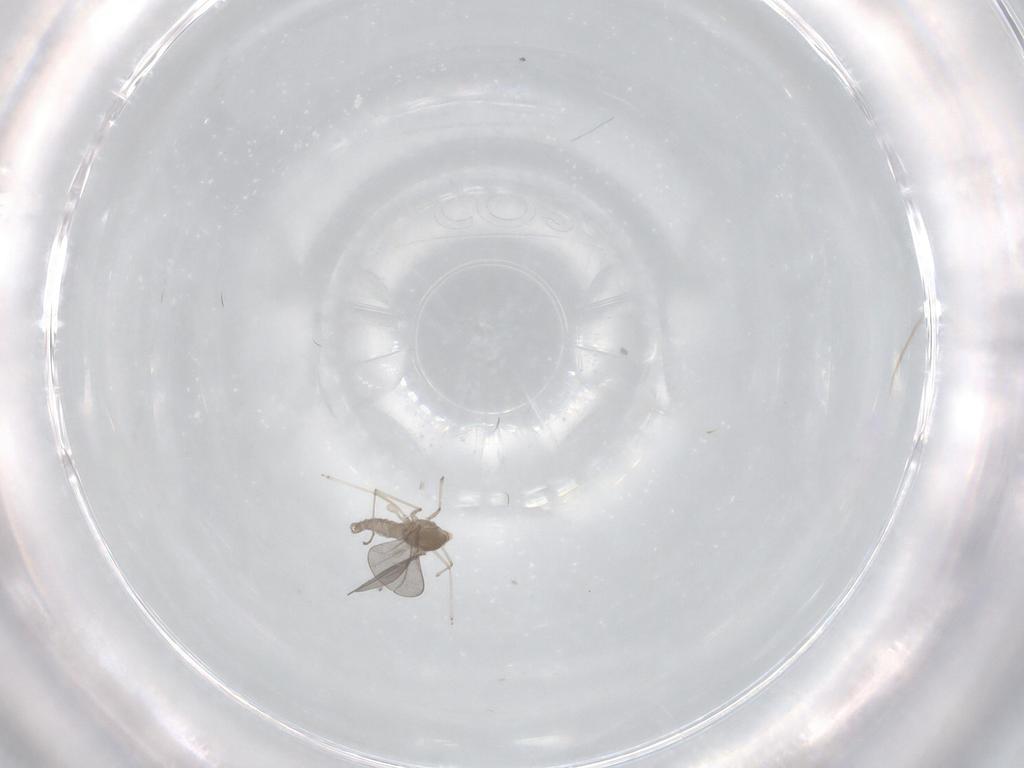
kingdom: Animalia
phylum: Arthropoda
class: Insecta
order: Diptera
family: Cecidomyiidae
